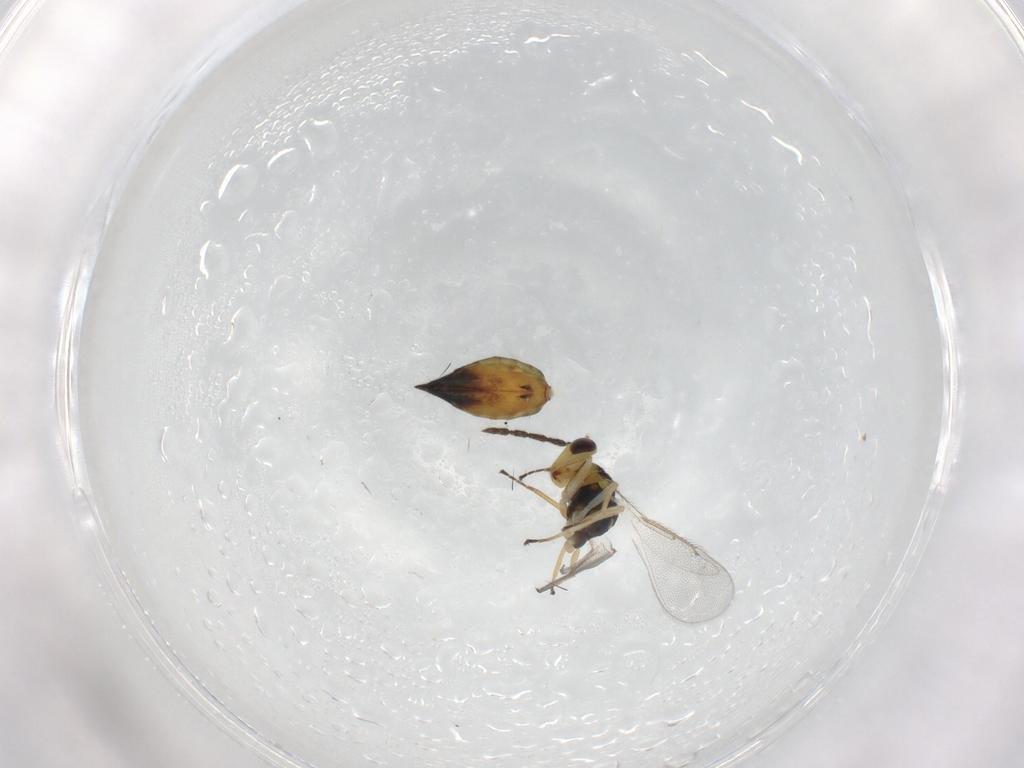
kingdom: Animalia
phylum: Arthropoda
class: Insecta
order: Hymenoptera
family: Eulophidae
